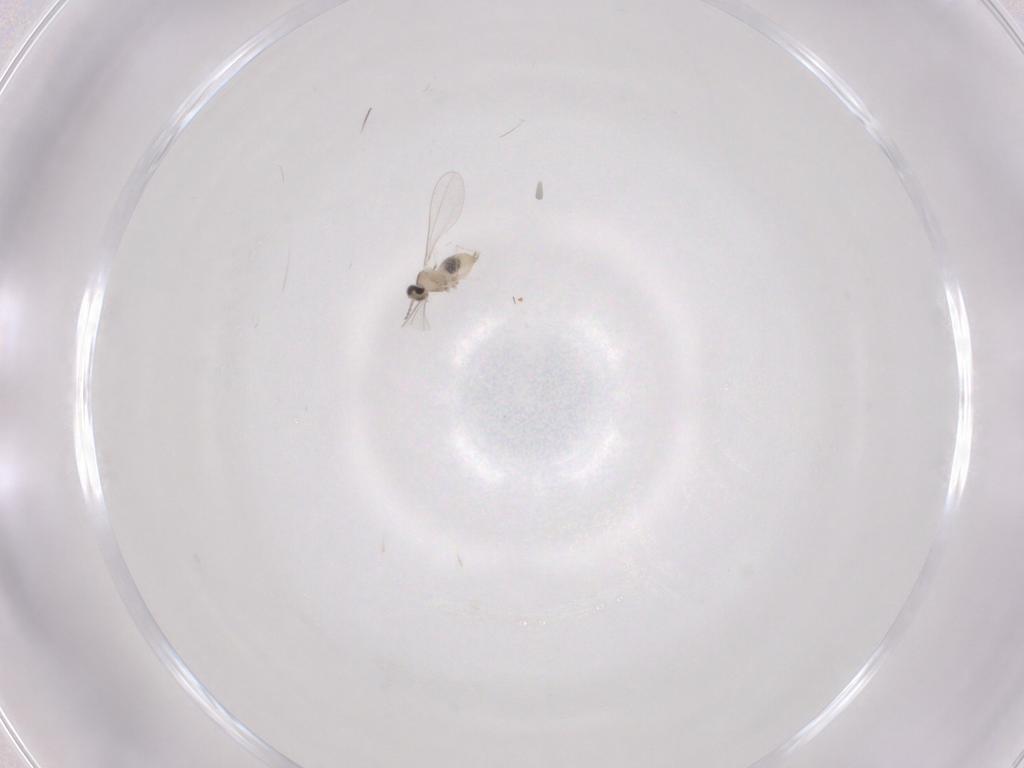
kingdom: Animalia
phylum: Arthropoda
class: Insecta
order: Diptera
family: Cecidomyiidae
